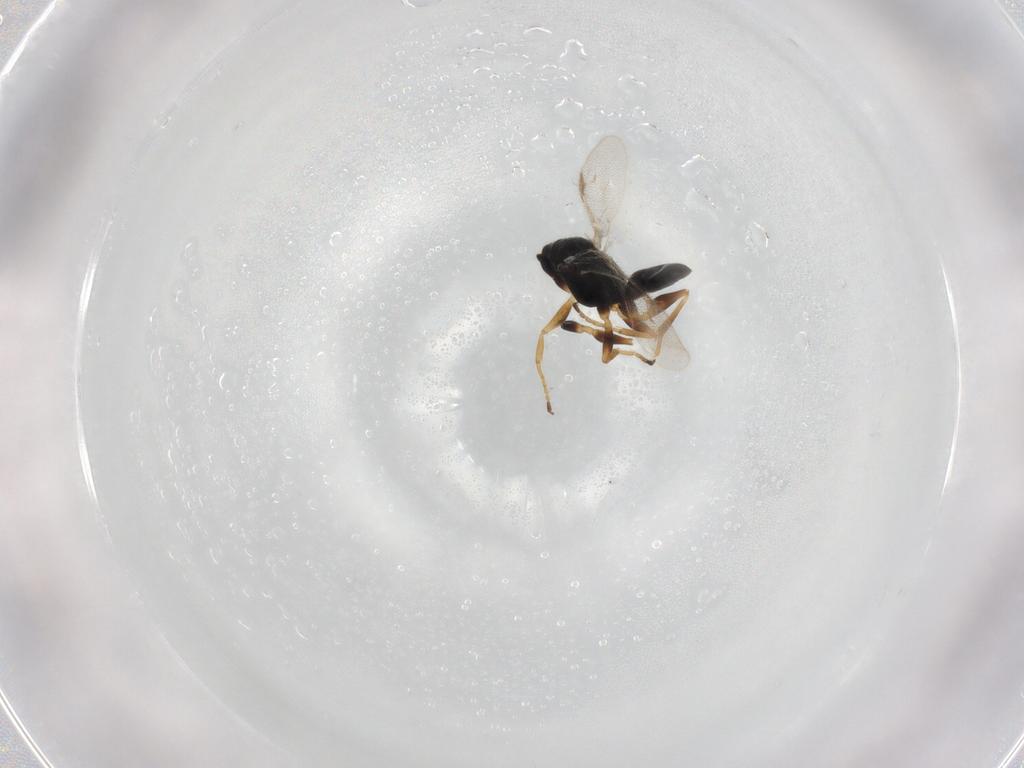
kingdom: Animalia
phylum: Arthropoda
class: Insecta
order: Hymenoptera
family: Dryinidae
